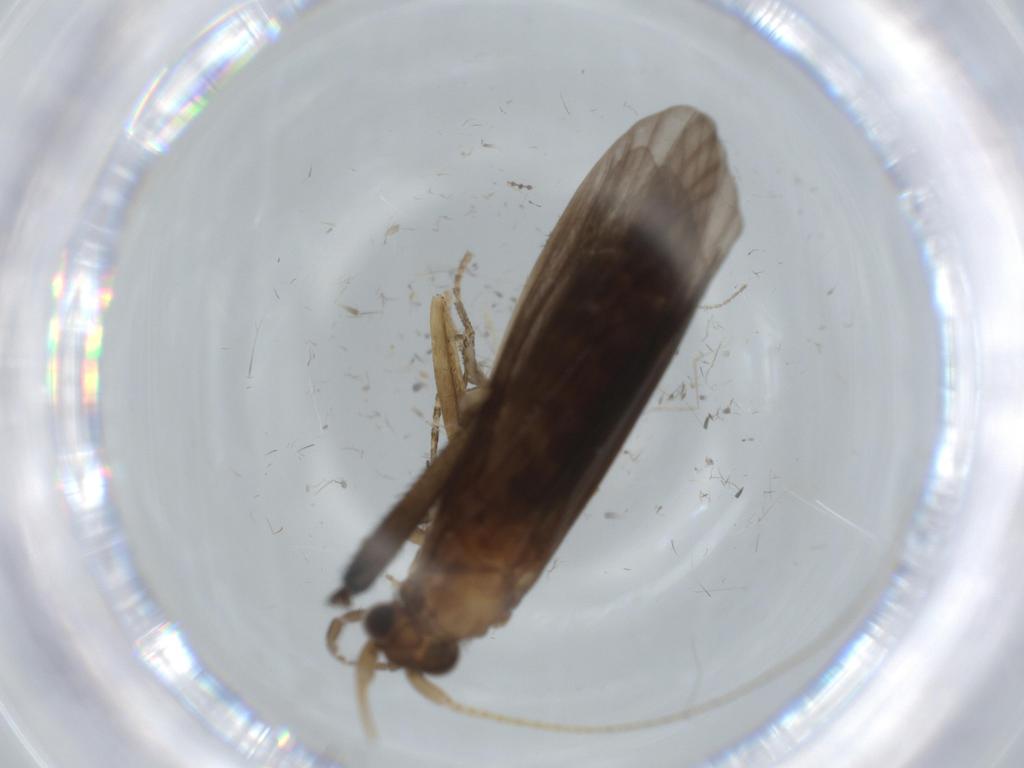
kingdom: Animalia
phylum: Arthropoda
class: Insecta
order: Trichoptera
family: Helicopsychidae
